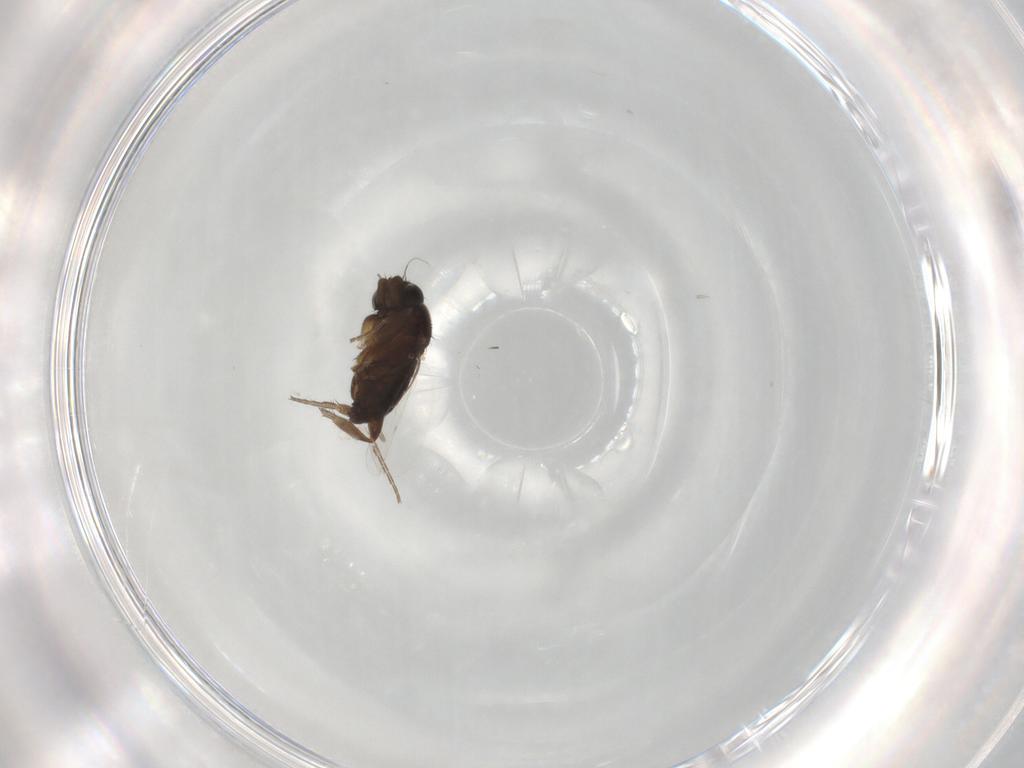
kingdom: Animalia
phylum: Arthropoda
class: Insecta
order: Diptera
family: Phoridae
